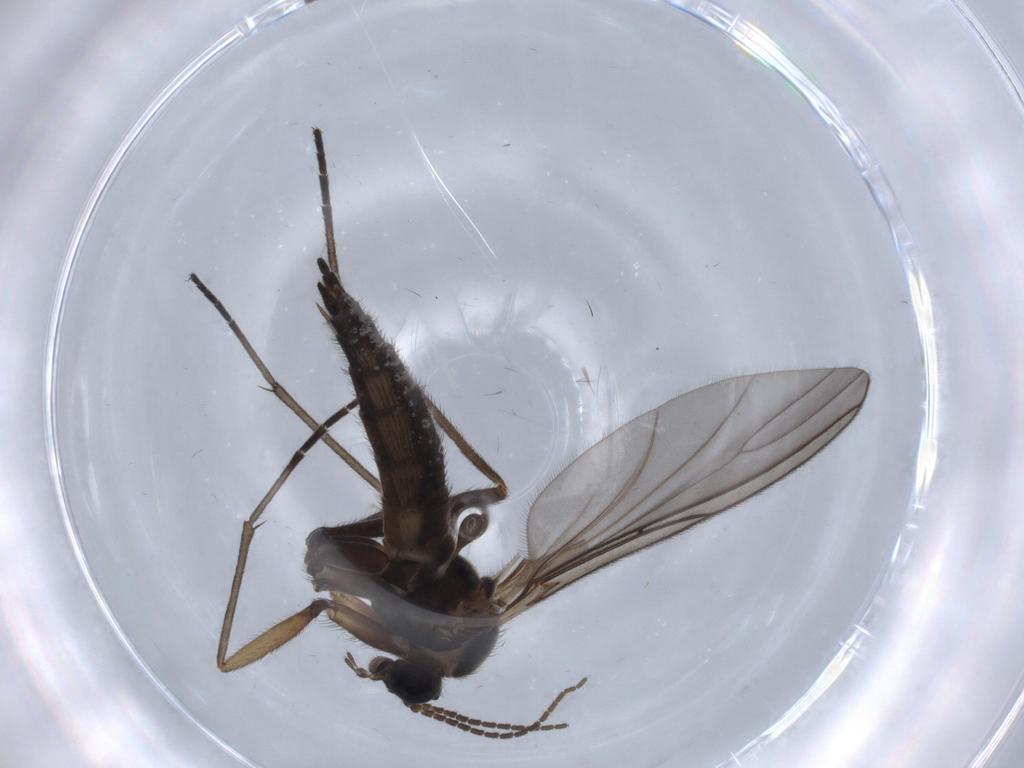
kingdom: Animalia
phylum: Arthropoda
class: Insecta
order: Diptera
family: Sciaridae
